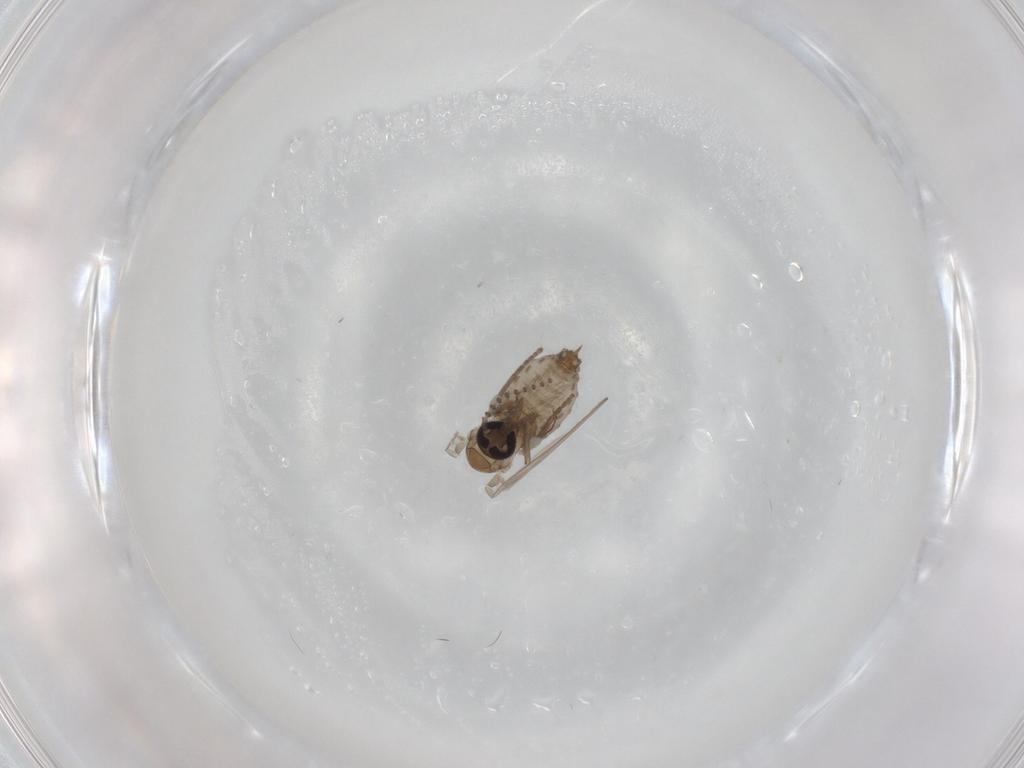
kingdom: Animalia
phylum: Arthropoda
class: Insecta
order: Diptera
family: Psychodidae
